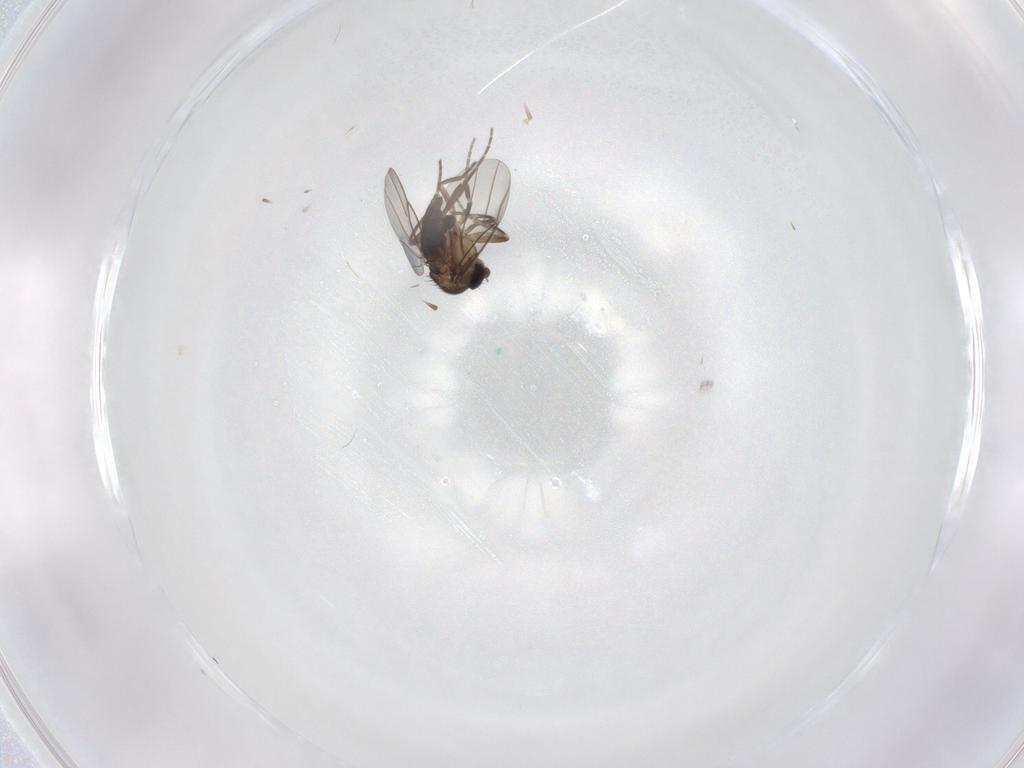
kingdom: Animalia
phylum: Arthropoda
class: Insecta
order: Diptera
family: Chironomidae
